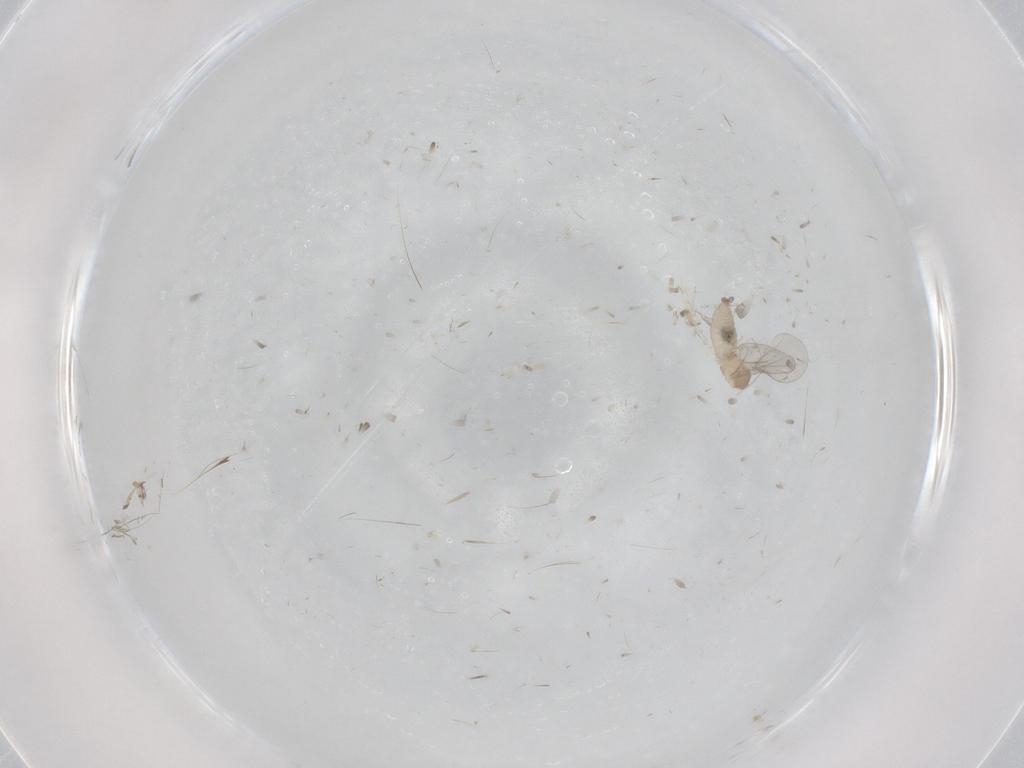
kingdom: Animalia
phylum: Arthropoda
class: Insecta
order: Diptera
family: Cecidomyiidae
